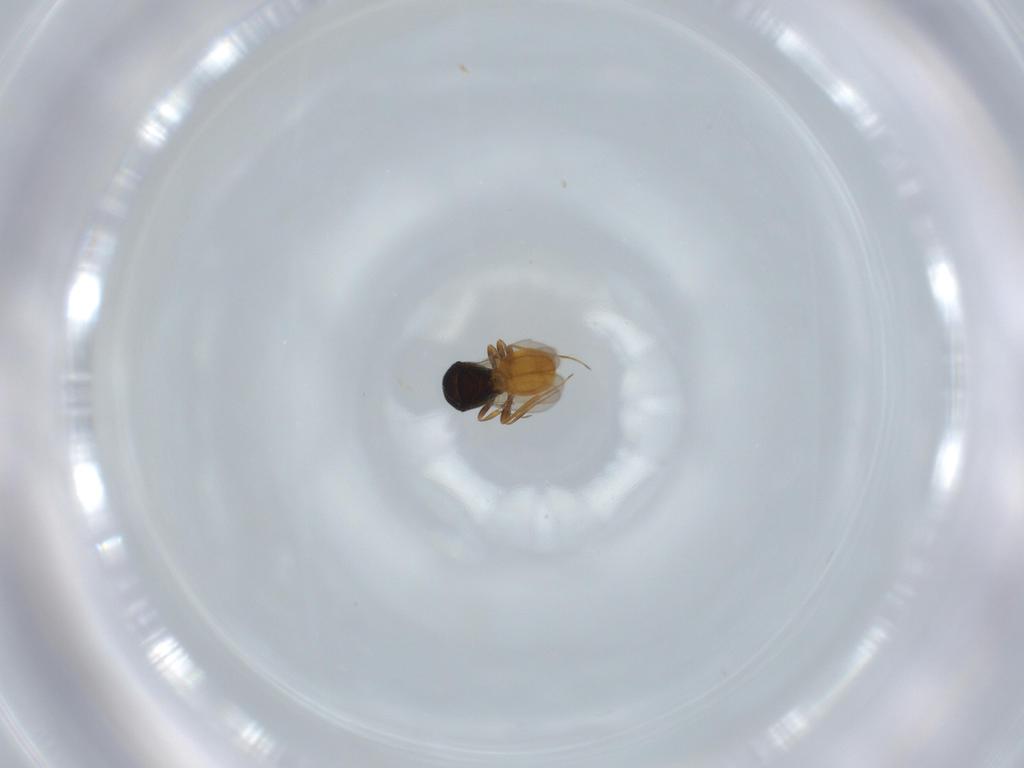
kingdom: Animalia
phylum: Arthropoda
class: Insecta
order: Hymenoptera
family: Scelionidae
